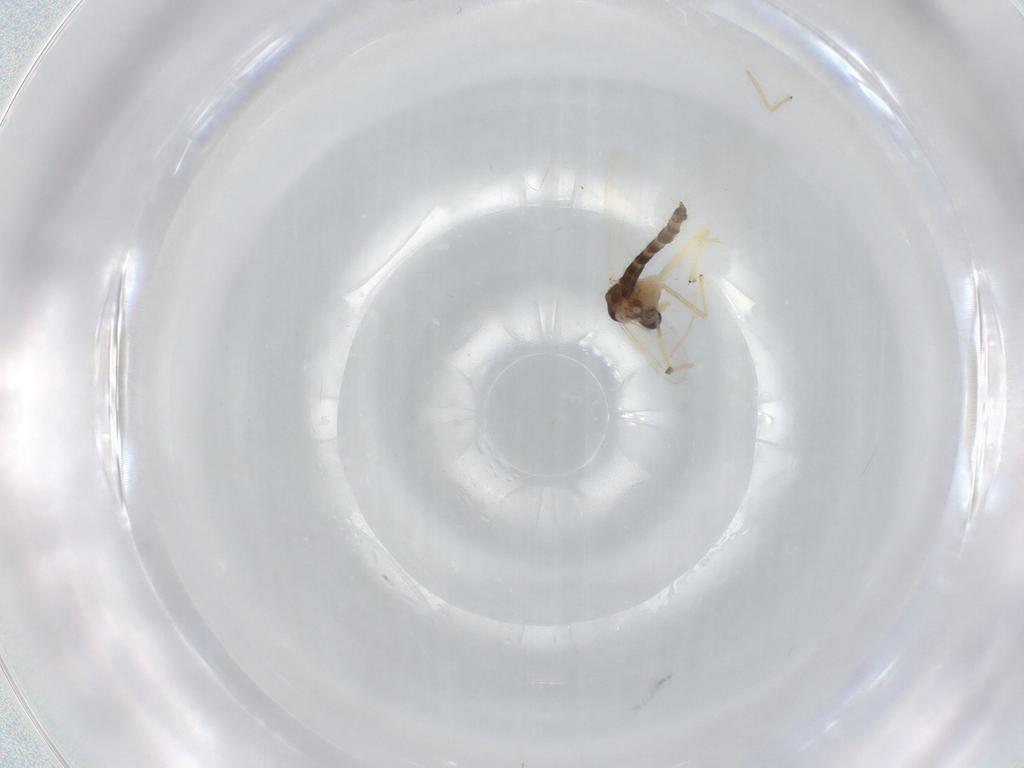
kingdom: Animalia
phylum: Arthropoda
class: Insecta
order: Diptera
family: Chironomidae
